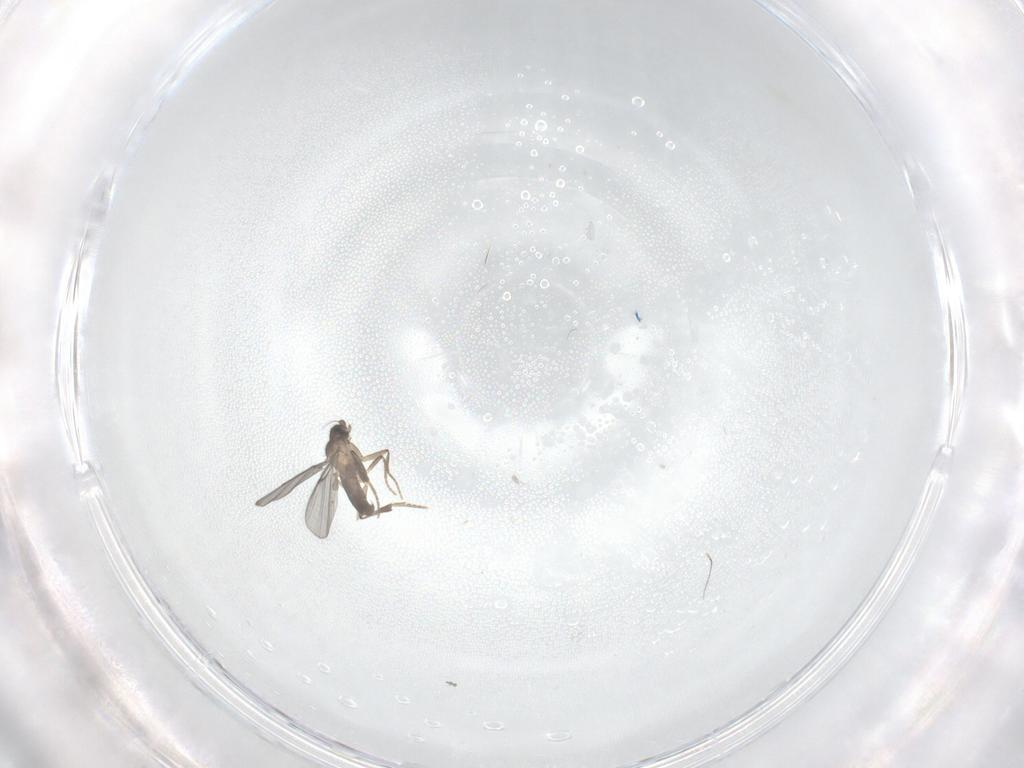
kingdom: Animalia
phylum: Arthropoda
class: Insecta
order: Diptera
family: Phoridae
